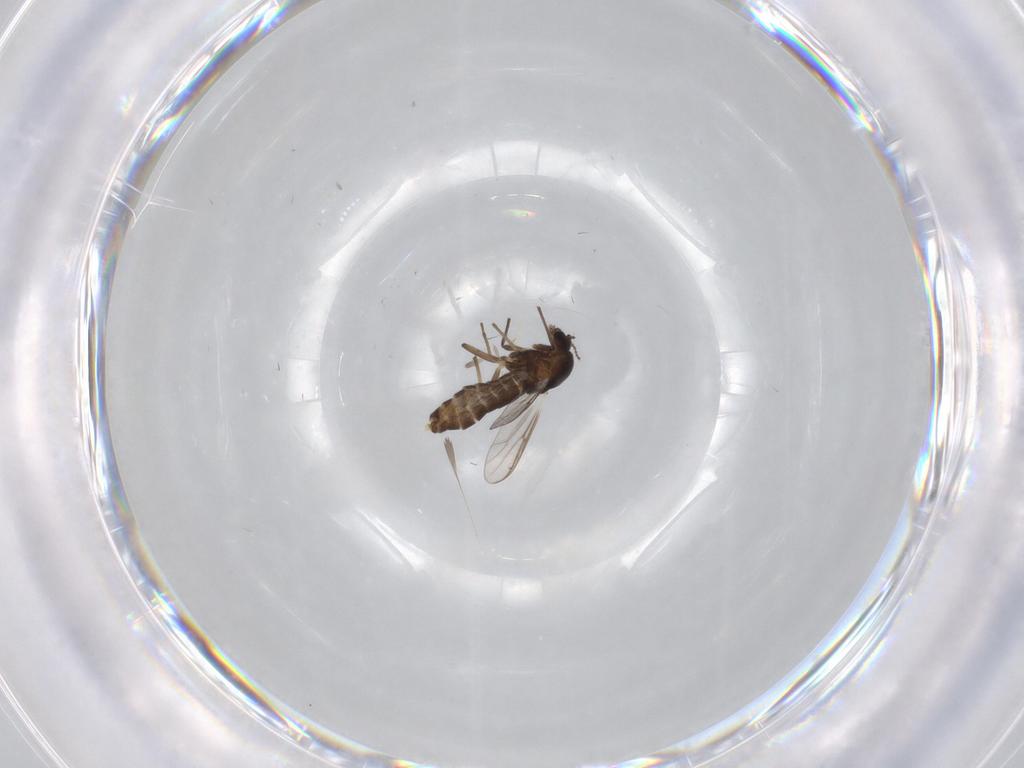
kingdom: Animalia
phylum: Arthropoda
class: Insecta
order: Diptera
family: Chironomidae
